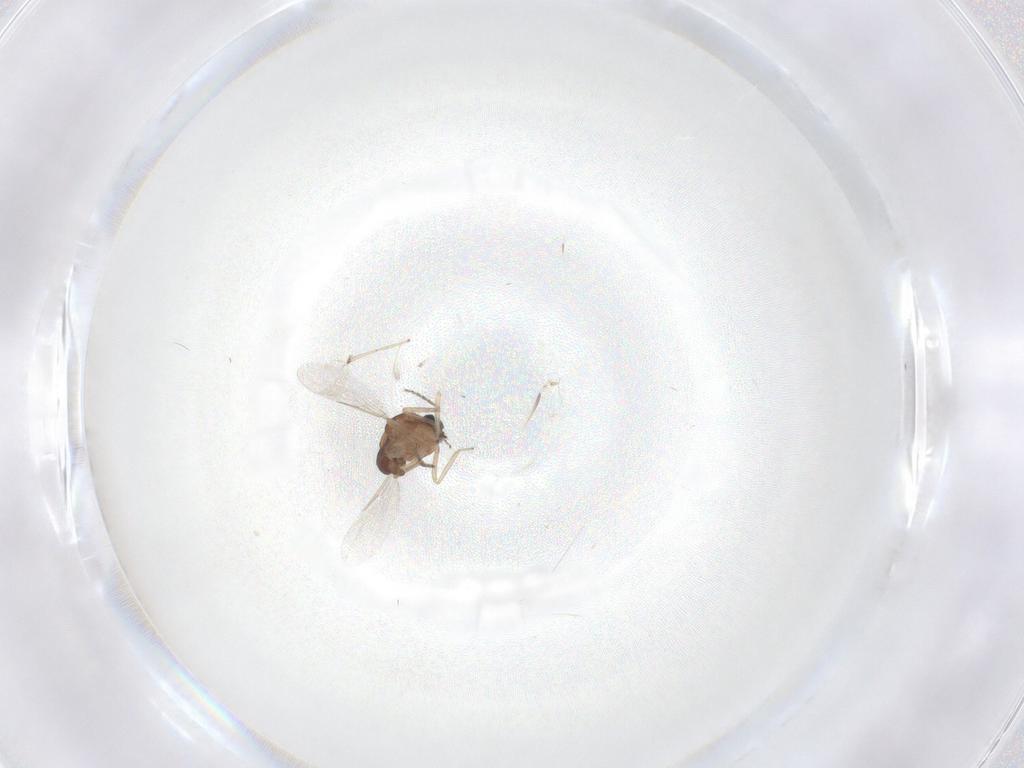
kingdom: Animalia
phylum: Arthropoda
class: Insecta
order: Diptera
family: Ceratopogonidae
